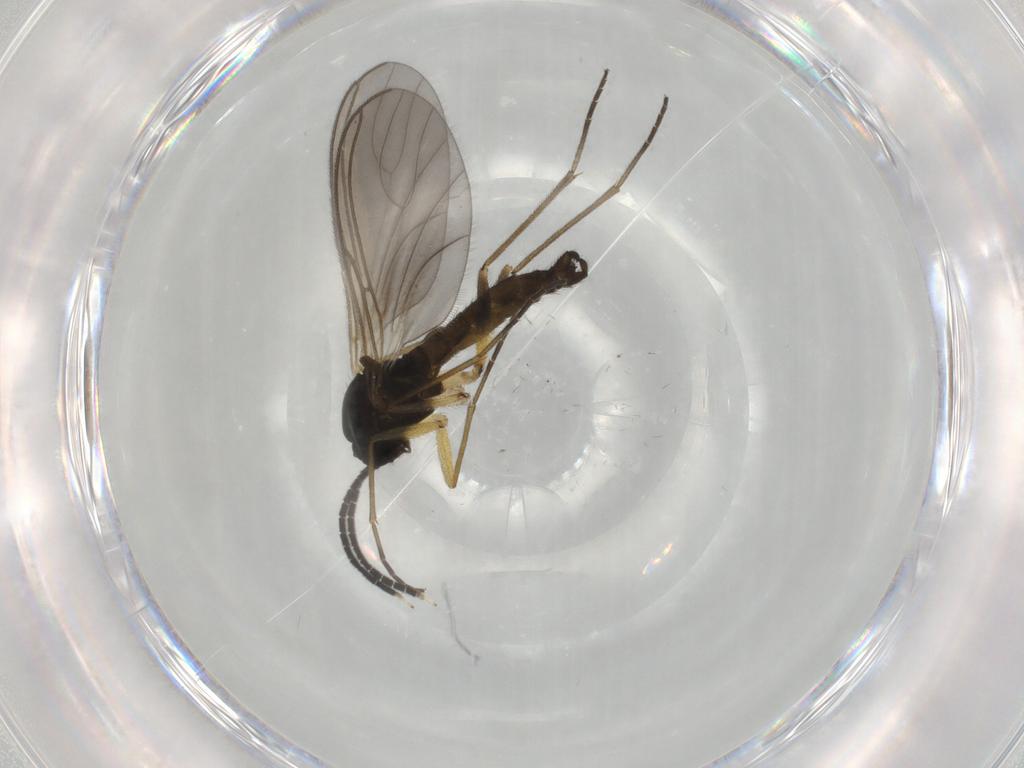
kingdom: Animalia
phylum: Arthropoda
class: Insecta
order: Diptera
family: Sciaridae
